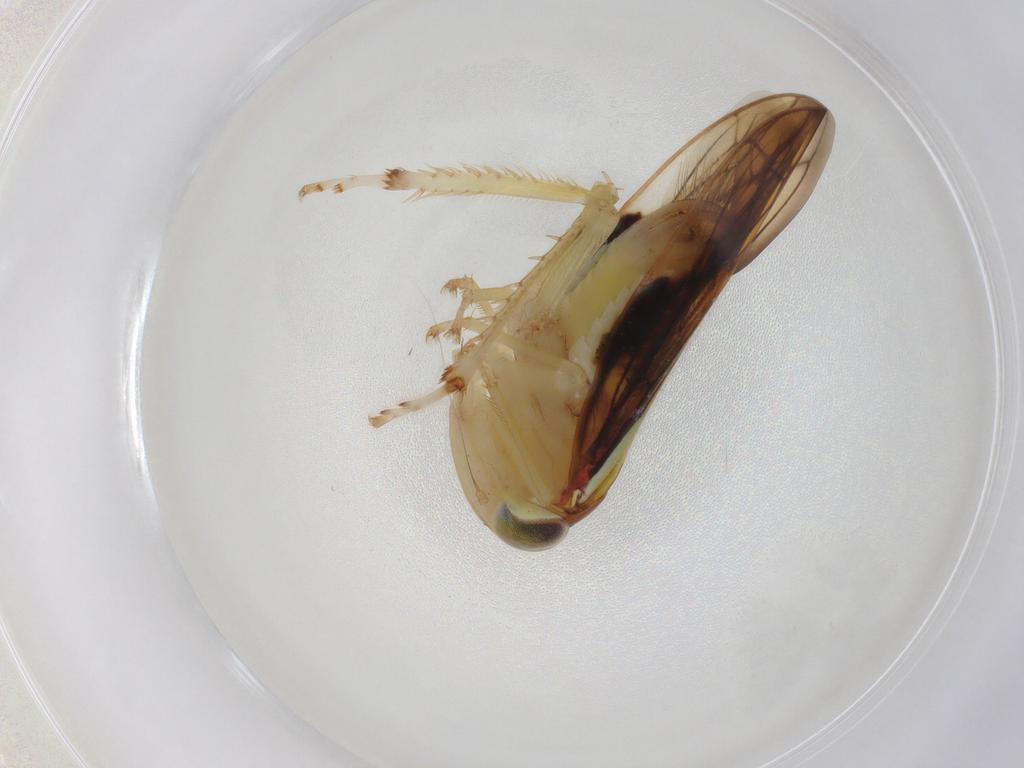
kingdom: Animalia
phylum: Arthropoda
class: Insecta
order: Hemiptera
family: Cicadellidae
